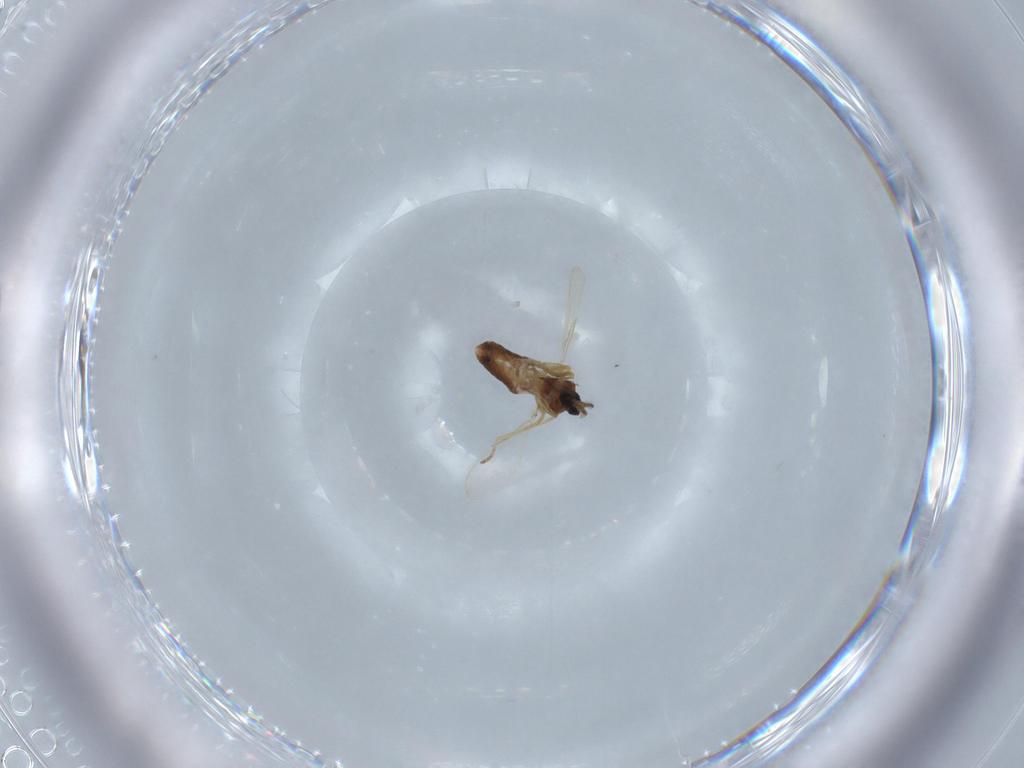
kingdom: Animalia
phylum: Arthropoda
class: Insecta
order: Diptera
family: Ceratopogonidae
